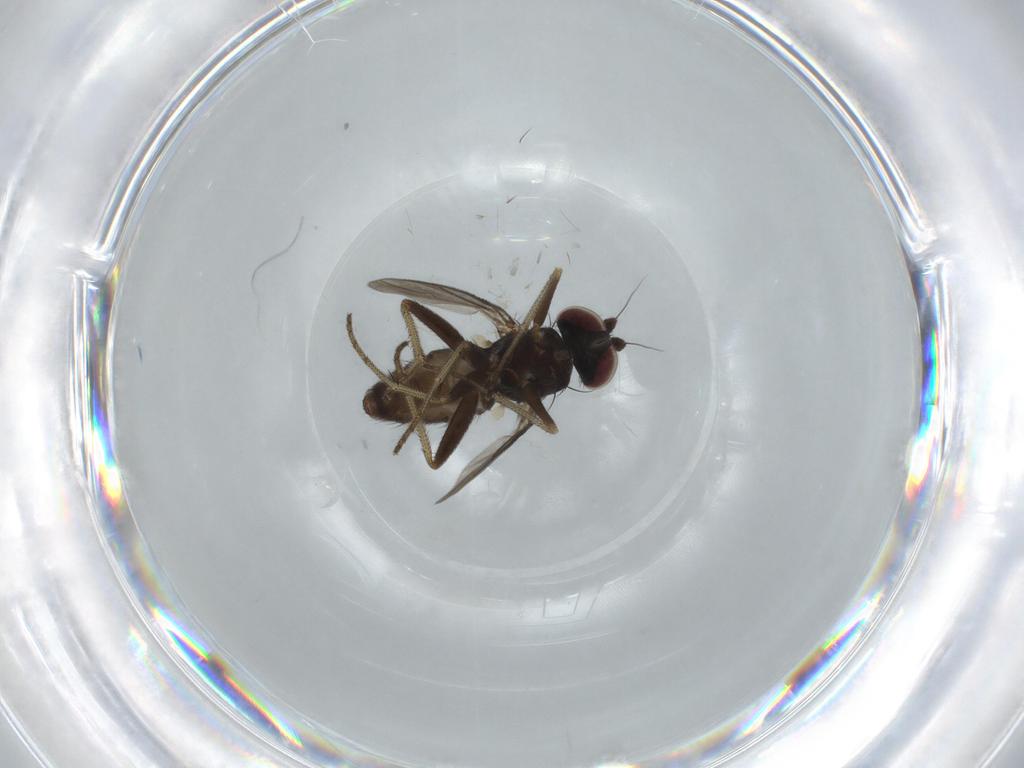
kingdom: Animalia
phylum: Arthropoda
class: Insecta
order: Diptera
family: Dolichopodidae
